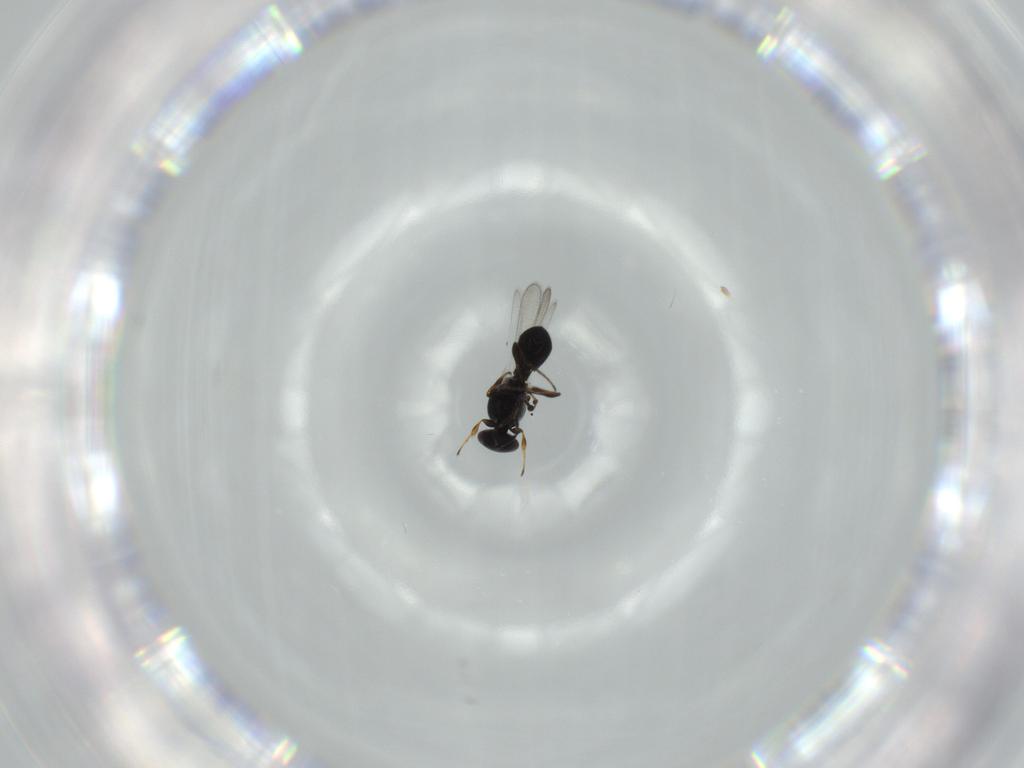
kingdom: Animalia
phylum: Arthropoda
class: Insecta
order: Hymenoptera
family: Platygastridae
